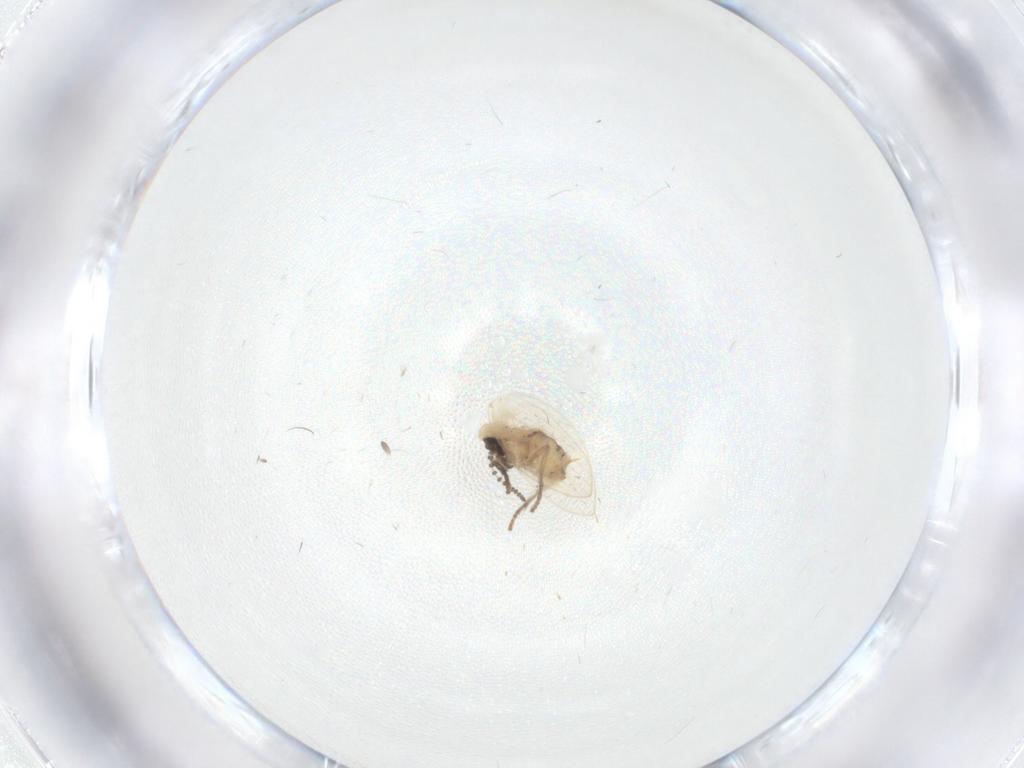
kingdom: Animalia
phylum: Arthropoda
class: Insecta
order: Diptera
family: Psychodidae
